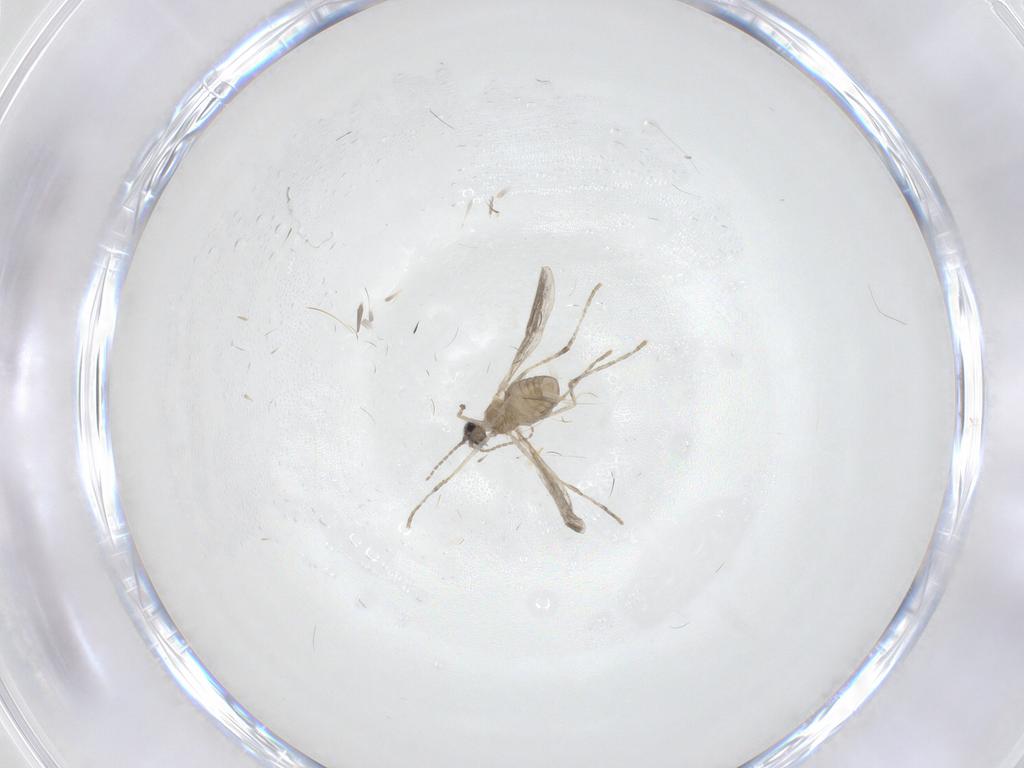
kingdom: Animalia
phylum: Arthropoda
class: Insecta
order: Diptera
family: Cecidomyiidae
